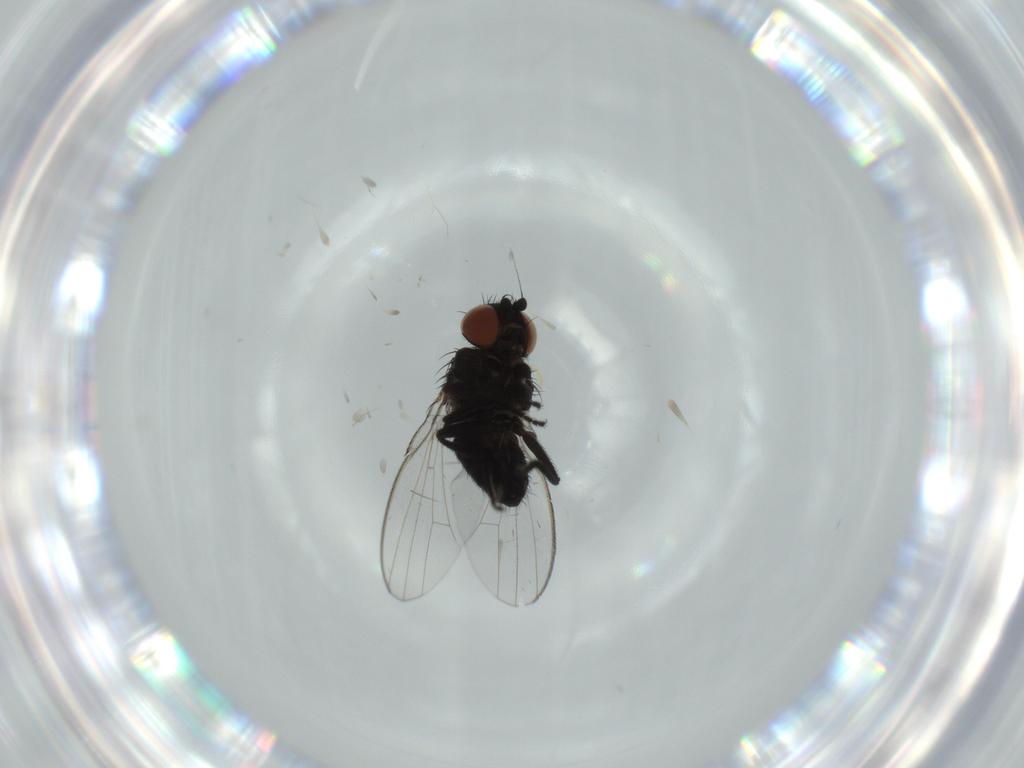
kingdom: Animalia
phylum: Arthropoda
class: Insecta
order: Diptera
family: Milichiidae
